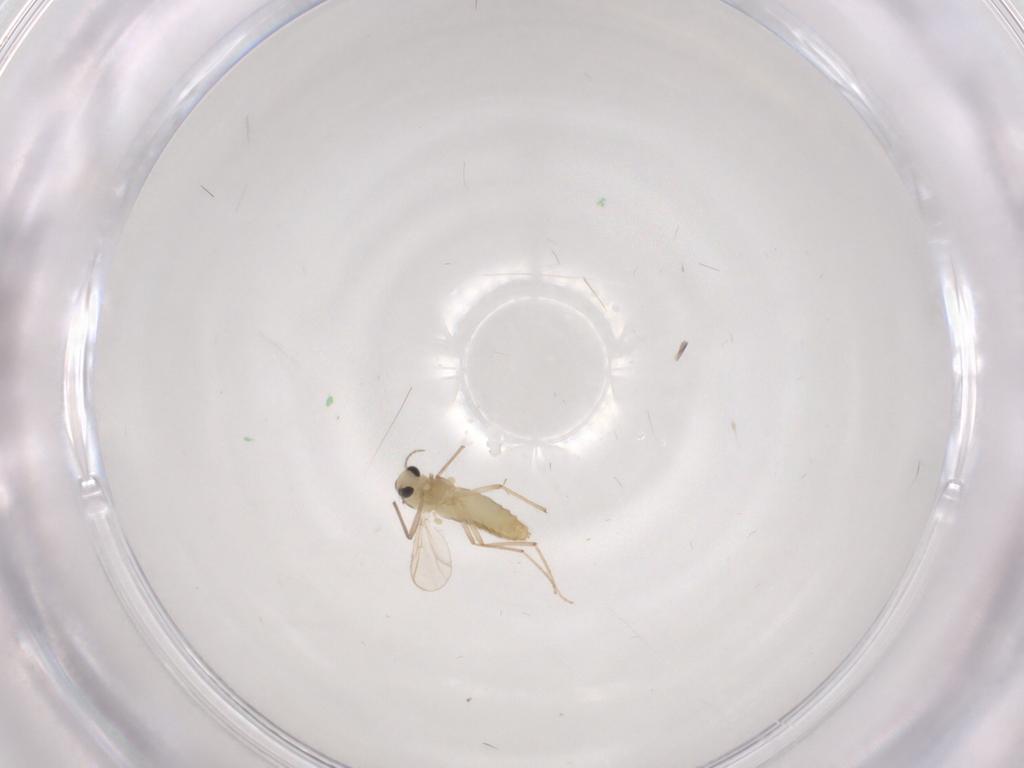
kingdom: Animalia
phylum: Arthropoda
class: Insecta
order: Diptera
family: Chironomidae
